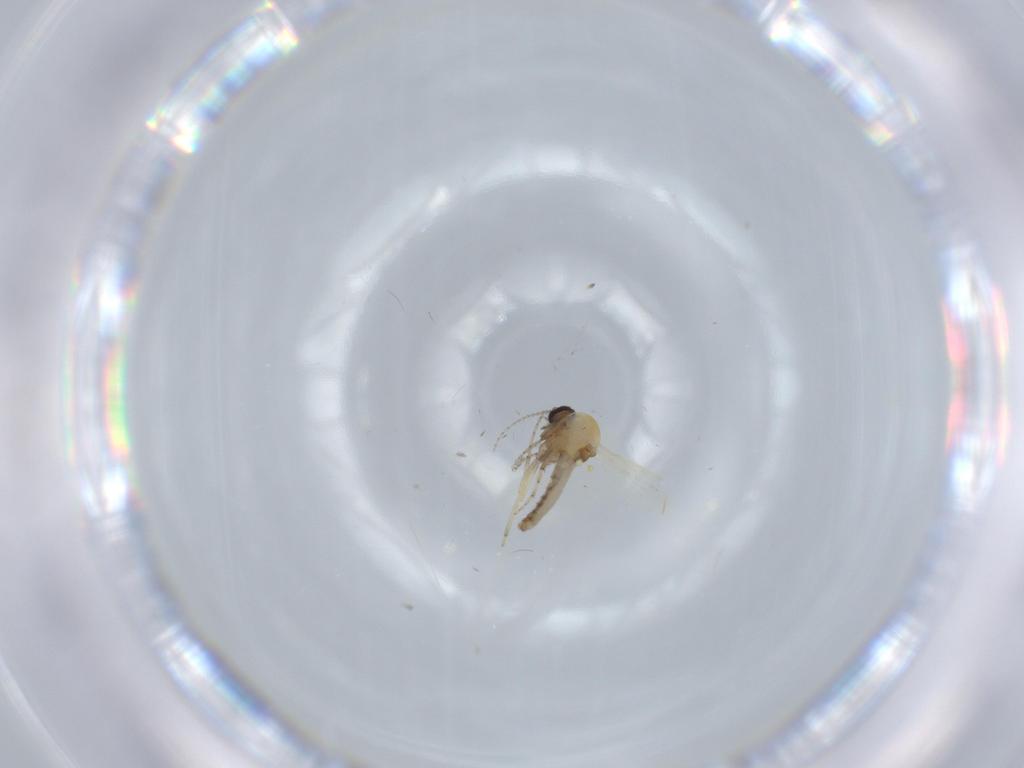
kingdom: Animalia
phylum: Arthropoda
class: Insecta
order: Diptera
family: Ceratopogonidae
